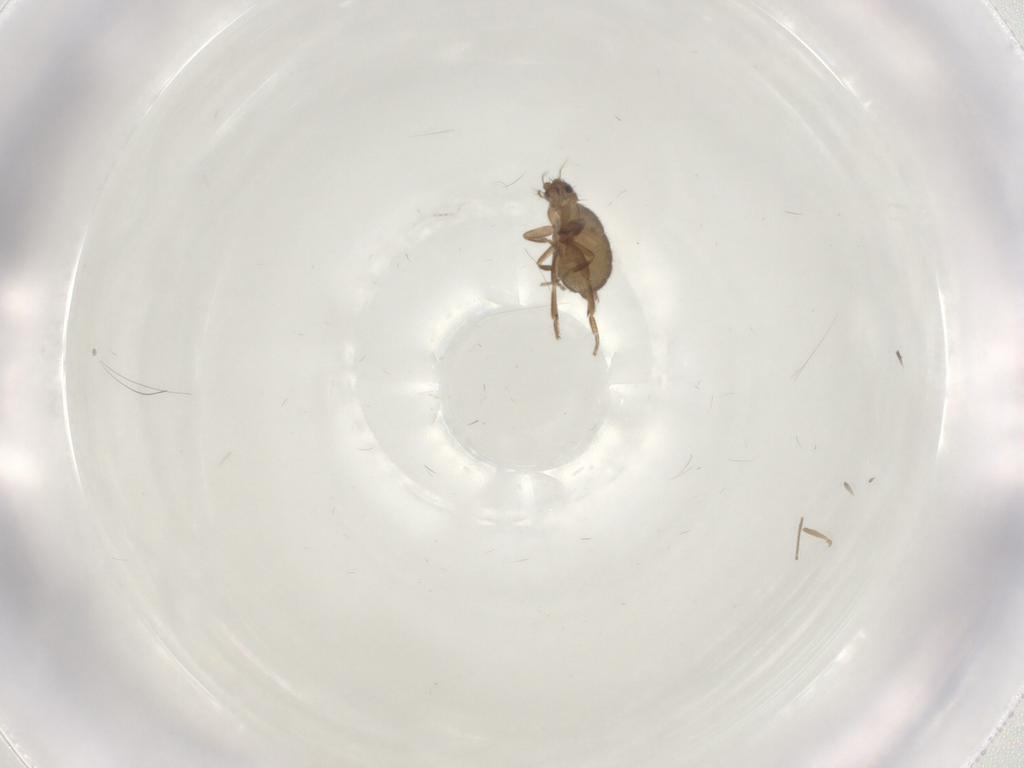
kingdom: Animalia
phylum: Arthropoda
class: Insecta
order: Diptera
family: Phoridae
